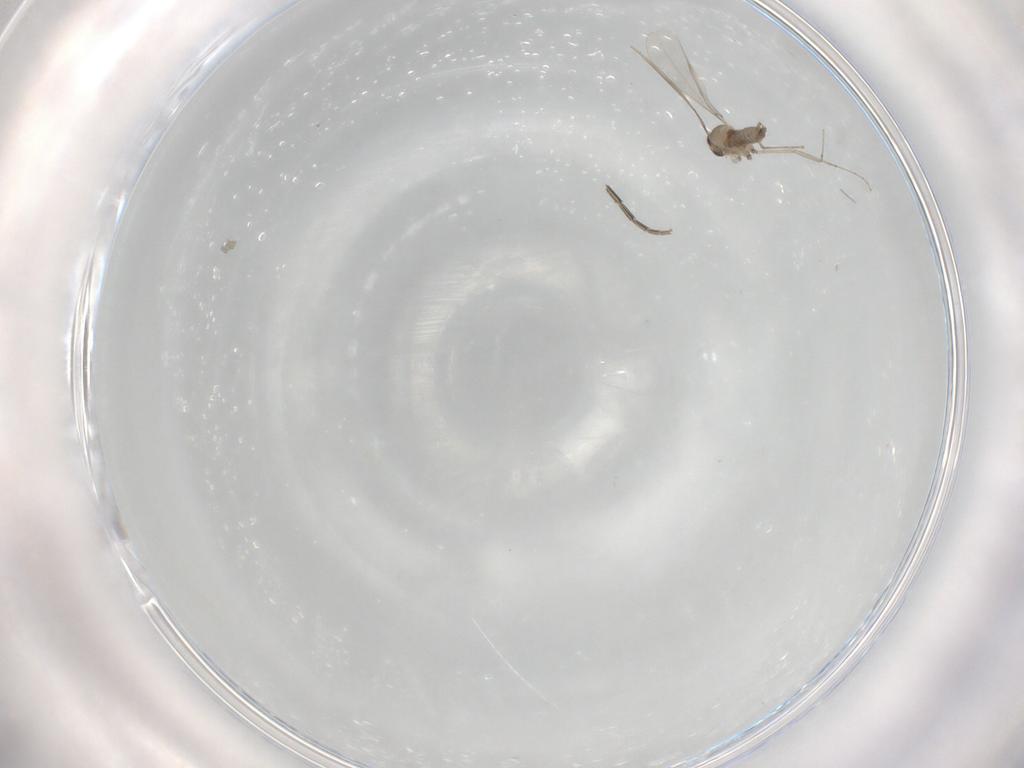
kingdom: Animalia
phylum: Arthropoda
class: Insecta
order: Diptera
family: Cecidomyiidae
